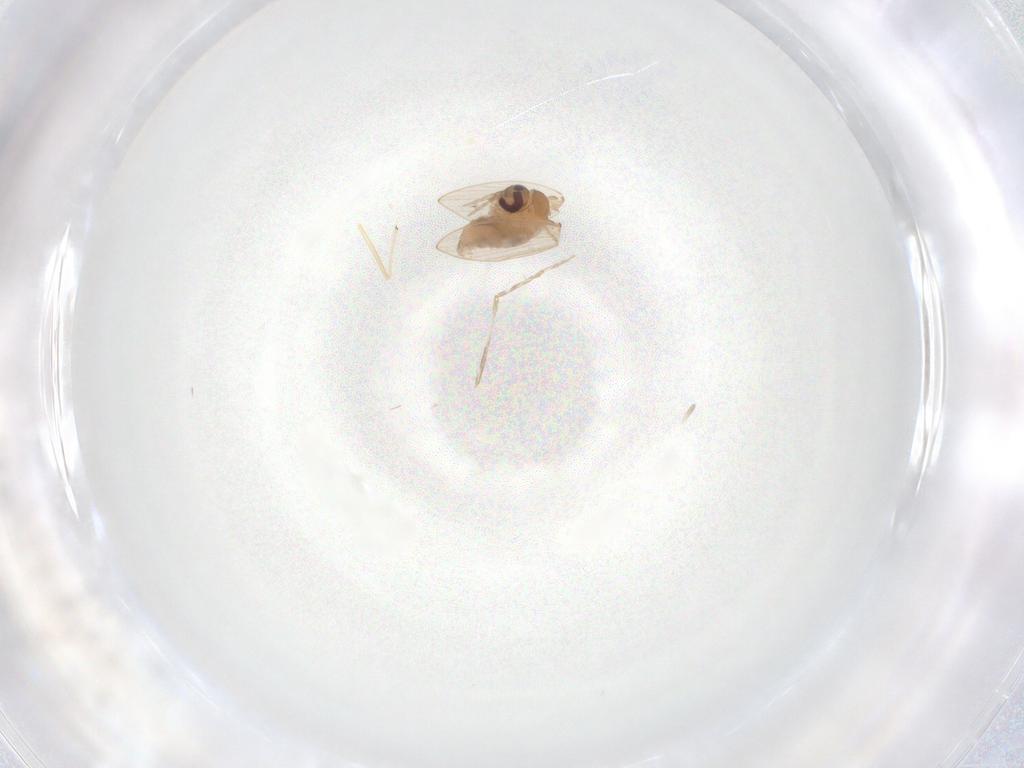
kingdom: Animalia
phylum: Arthropoda
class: Insecta
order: Diptera
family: Psychodidae
